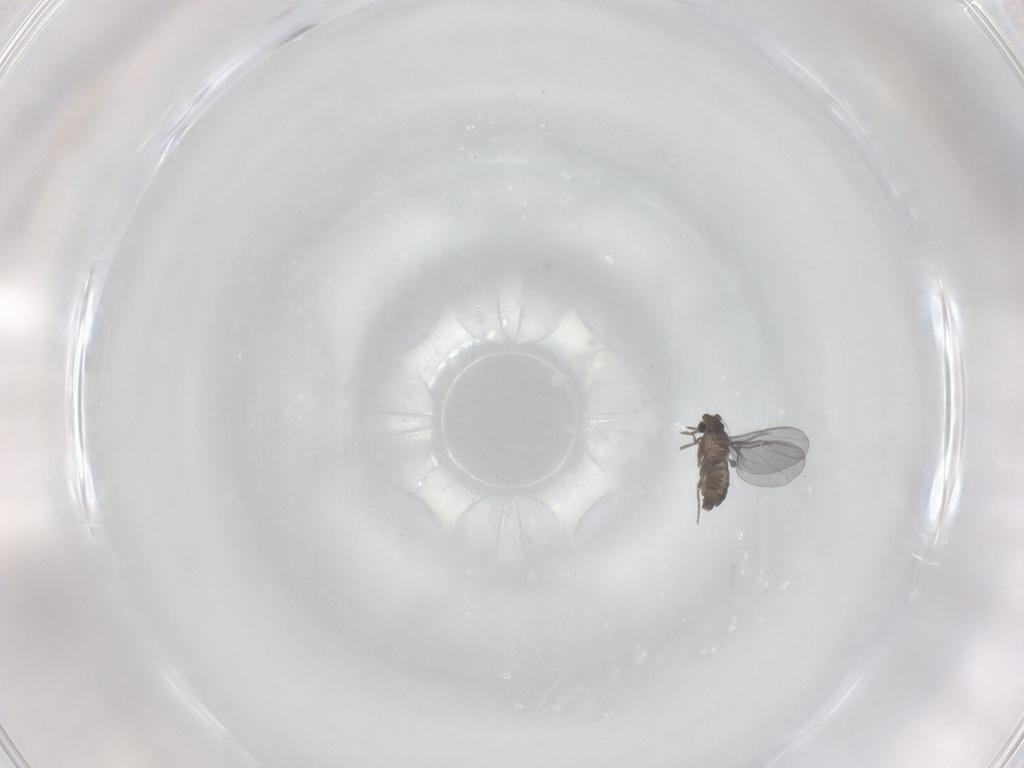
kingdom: Animalia
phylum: Arthropoda
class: Insecta
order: Diptera
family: Phoridae
